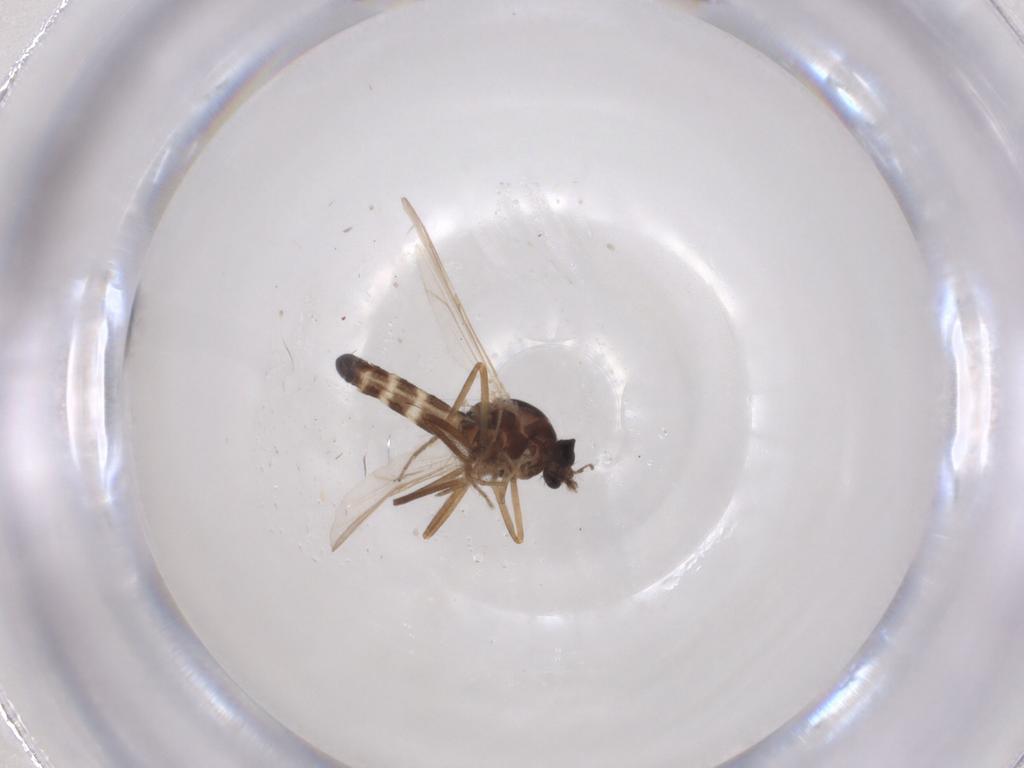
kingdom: Animalia
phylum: Arthropoda
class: Insecta
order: Diptera
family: Ceratopogonidae
